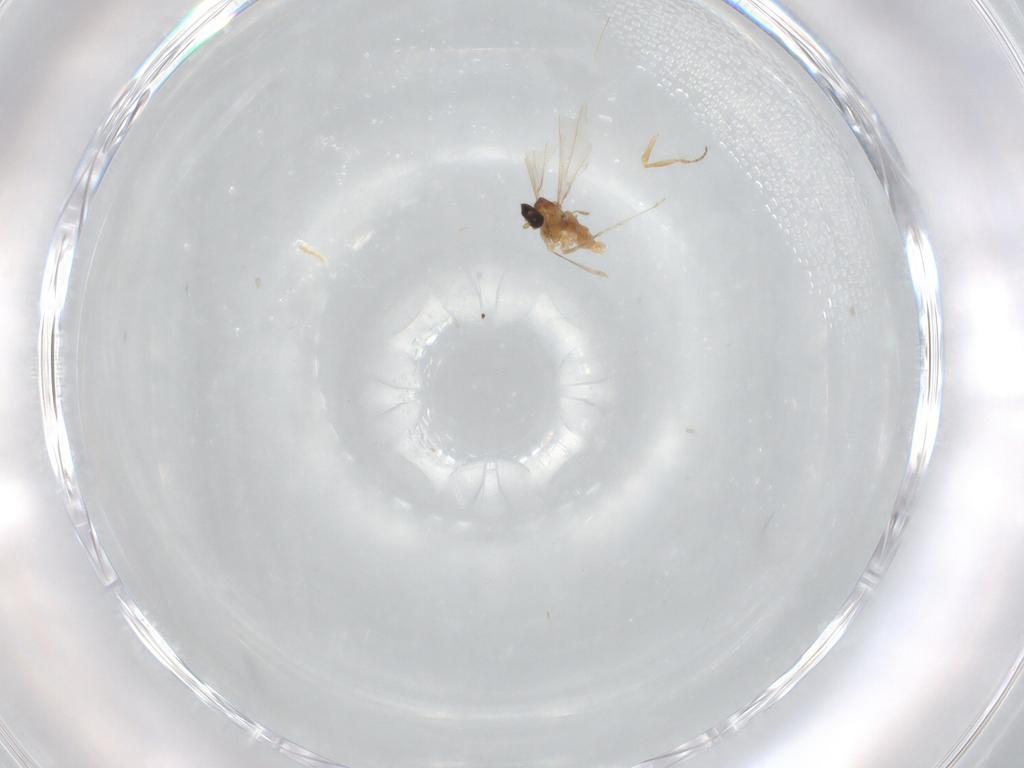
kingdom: Animalia
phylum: Arthropoda
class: Insecta
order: Diptera
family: Cecidomyiidae
